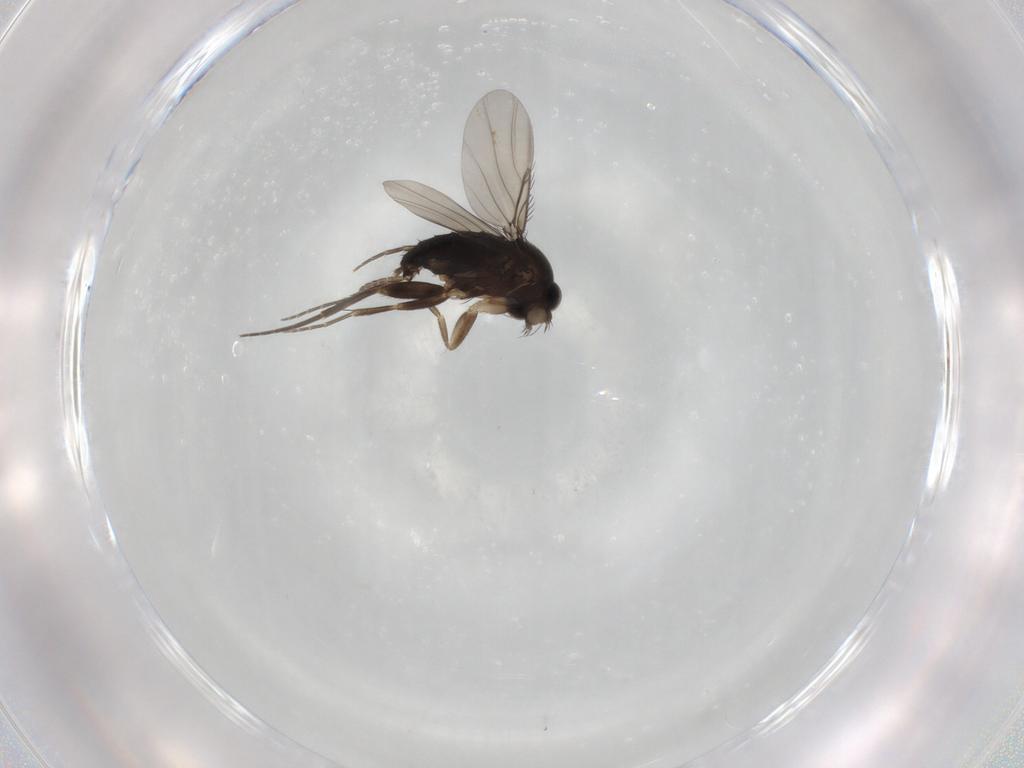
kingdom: Animalia
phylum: Arthropoda
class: Insecta
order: Diptera
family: Phoridae
